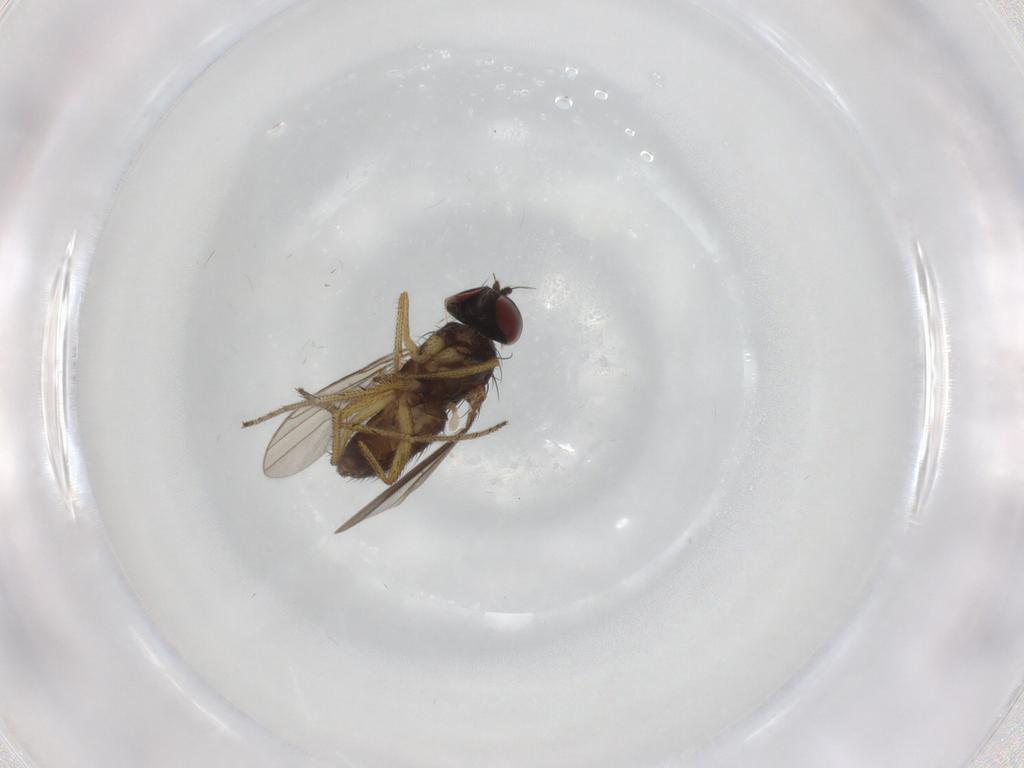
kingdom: Animalia
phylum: Arthropoda
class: Insecta
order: Diptera
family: Dolichopodidae
